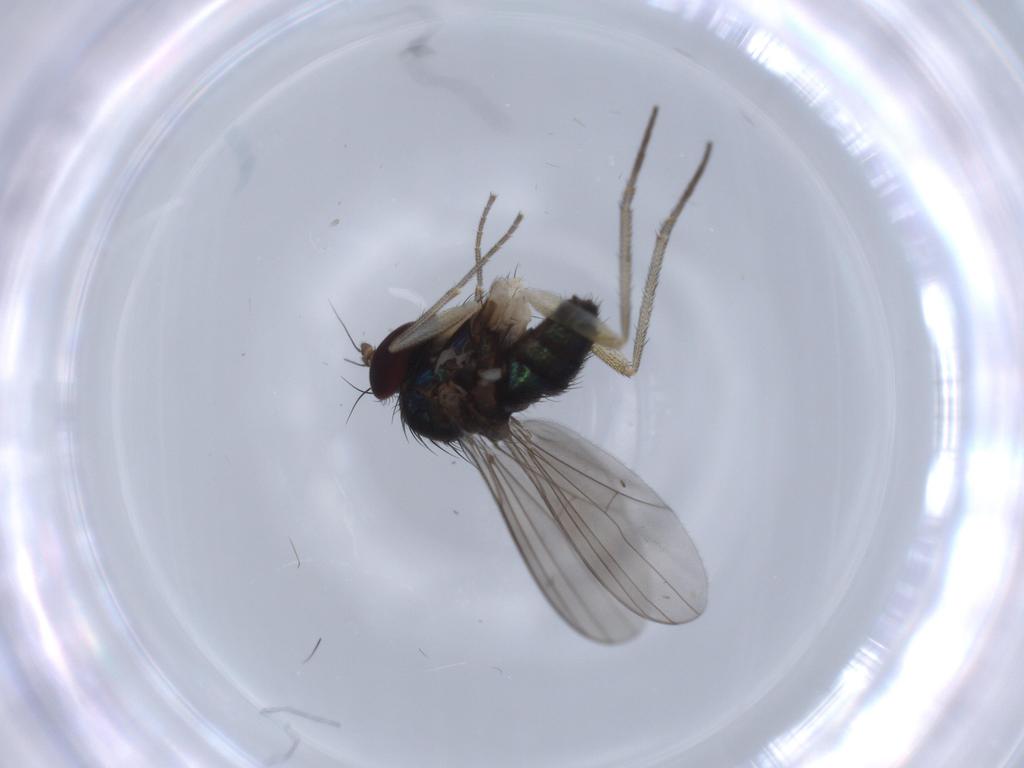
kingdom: Animalia
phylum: Arthropoda
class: Insecta
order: Diptera
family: Dolichopodidae
